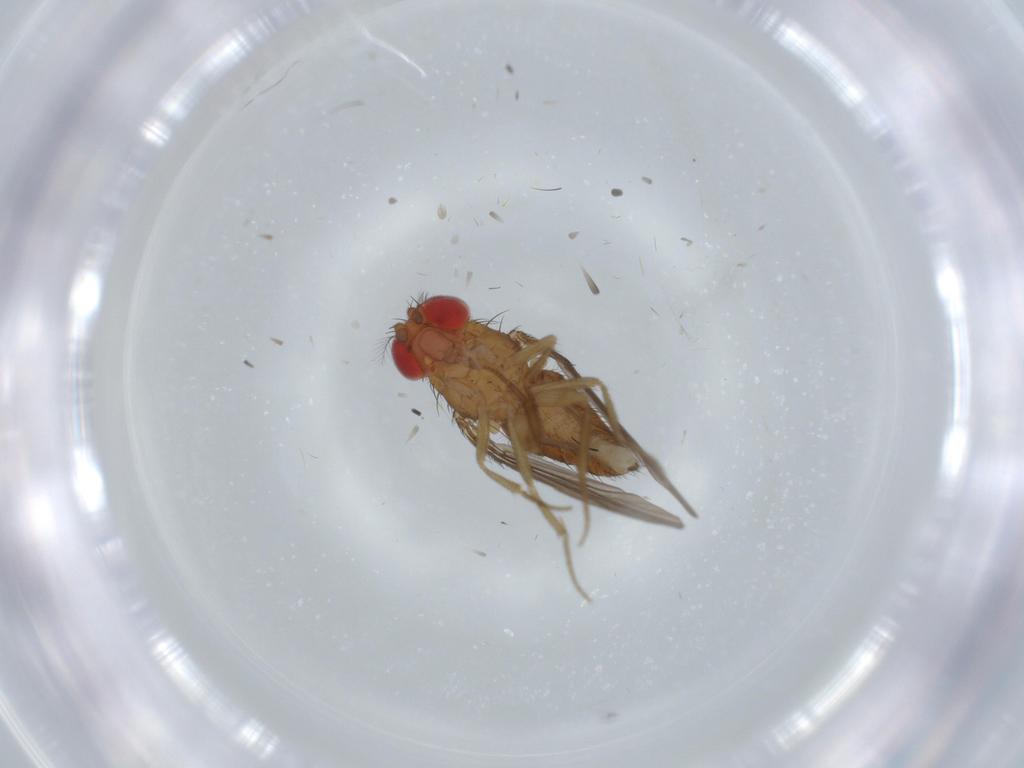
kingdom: Animalia
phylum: Arthropoda
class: Insecta
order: Diptera
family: Drosophilidae
